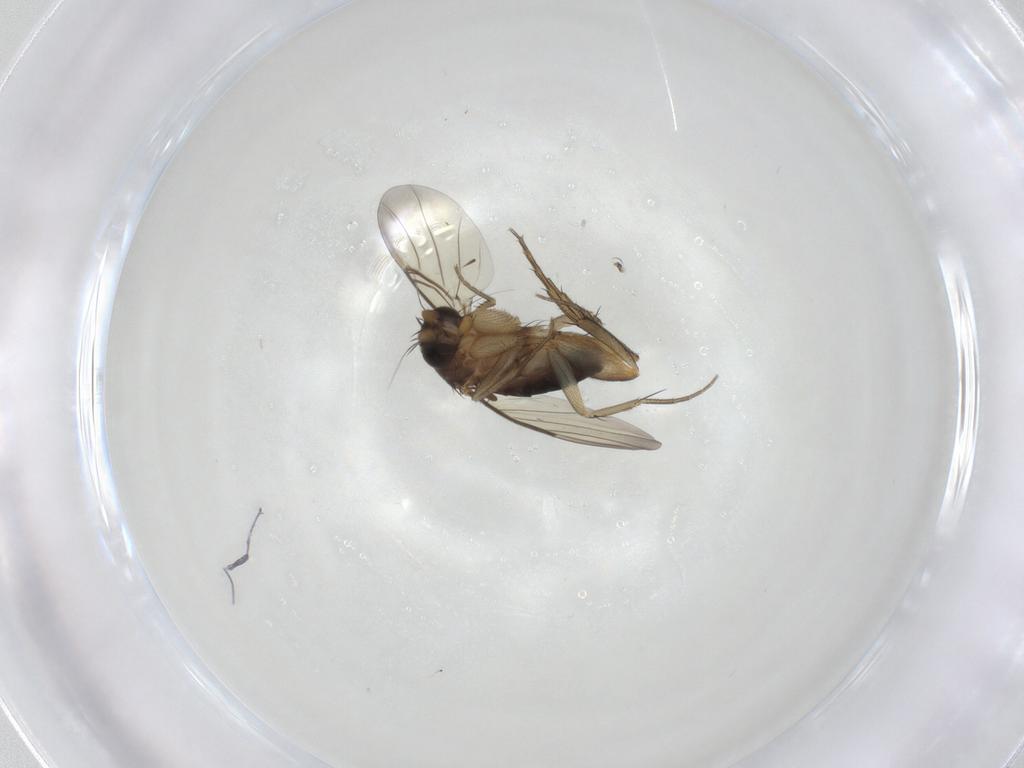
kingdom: Animalia
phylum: Arthropoda
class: Insecta
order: Diptera
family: Phoridae
